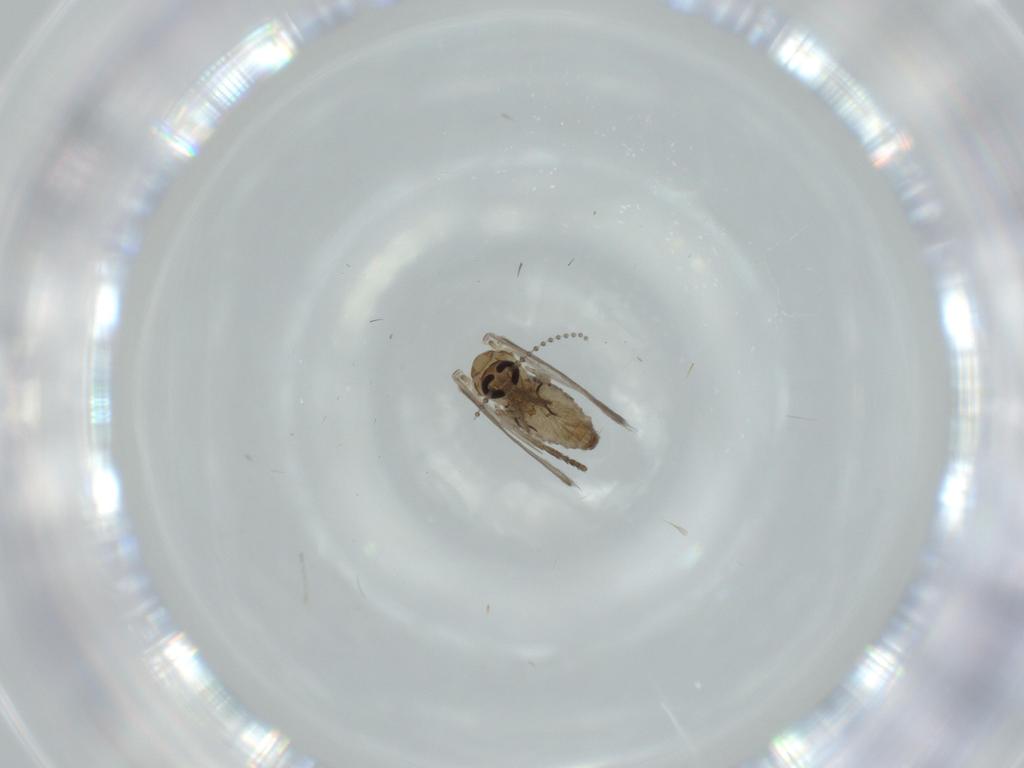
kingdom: Animalia
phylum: Arthropoda
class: Insecta
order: Diptera
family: Psychodidae
